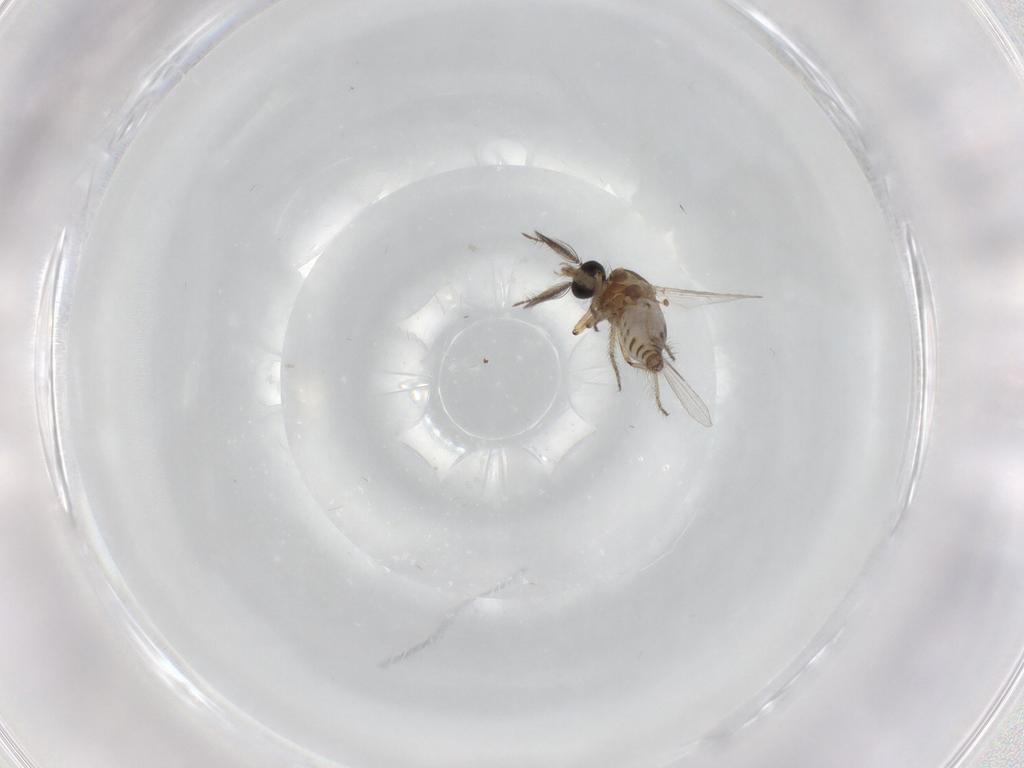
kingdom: Animalia
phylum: Arthropoda
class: Insecta
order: Diptera
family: Ceratopogonidae
